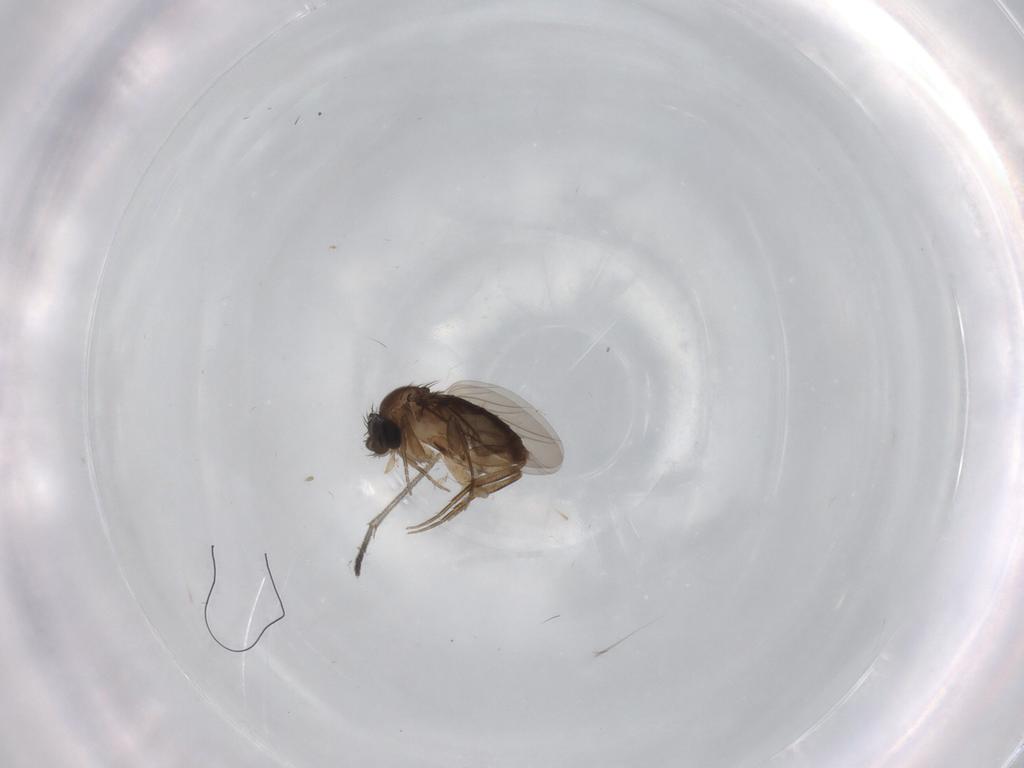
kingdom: Animalia
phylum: Arthropoda
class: Insecta
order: Diptera
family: Phoridae
